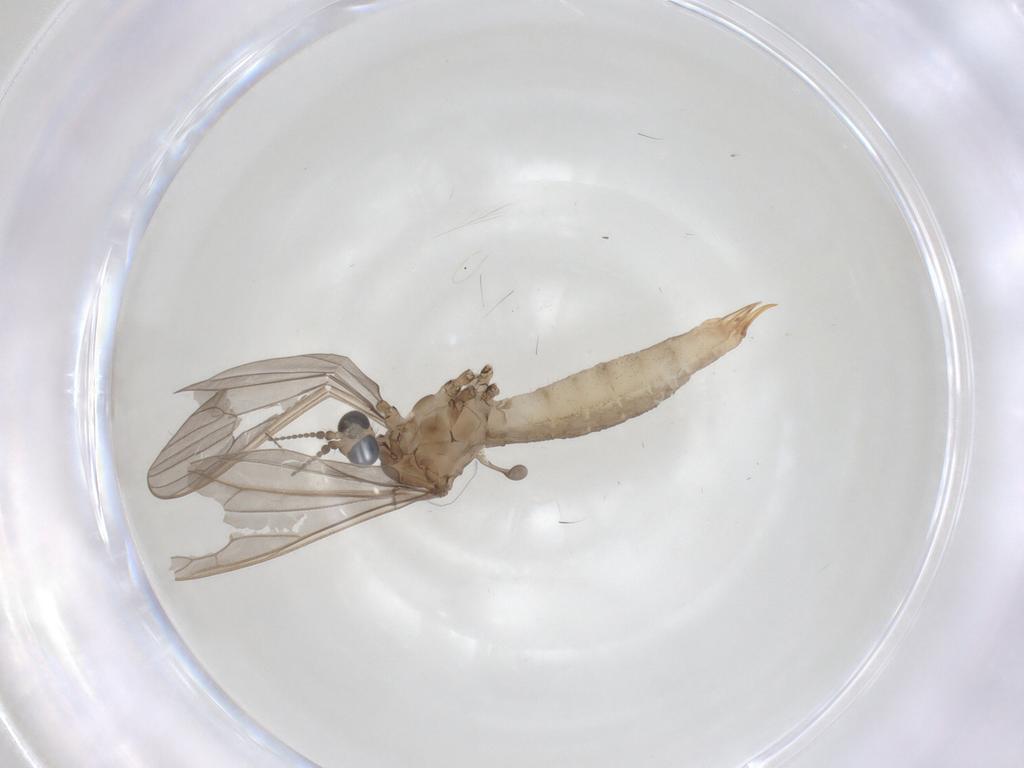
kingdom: Animalia
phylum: Arthropoda
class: Insecta
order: Diptera
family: Limoniidae
